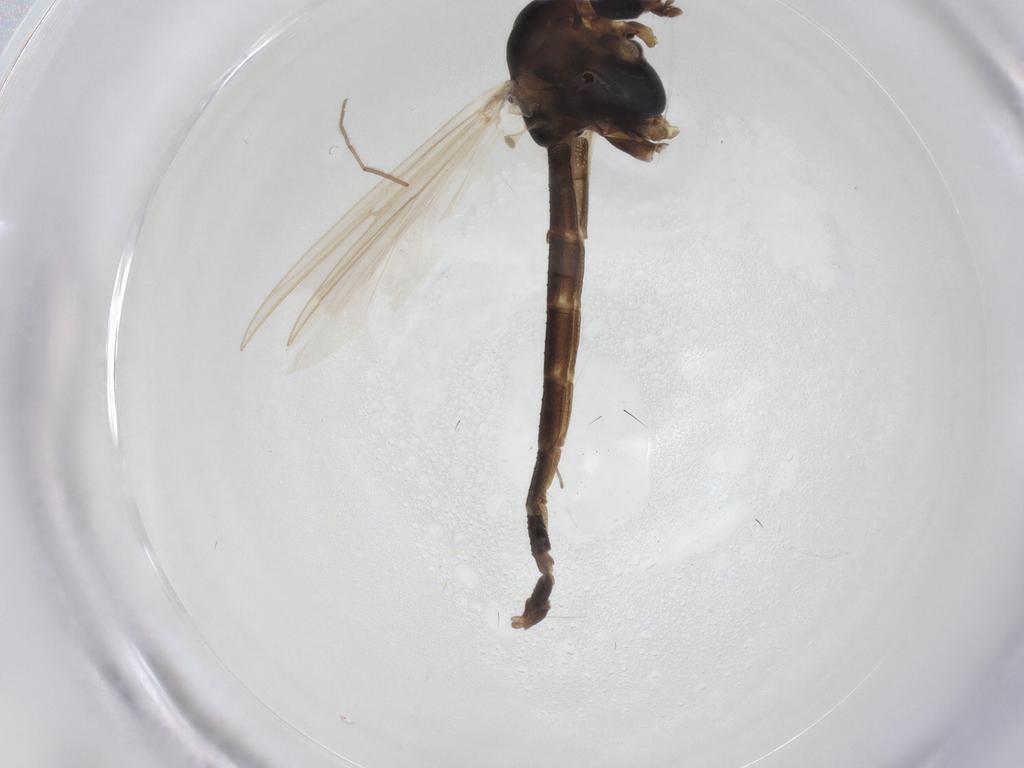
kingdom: Animalia
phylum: Arthropoda
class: Insecta
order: Diptera
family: Chironomidae
